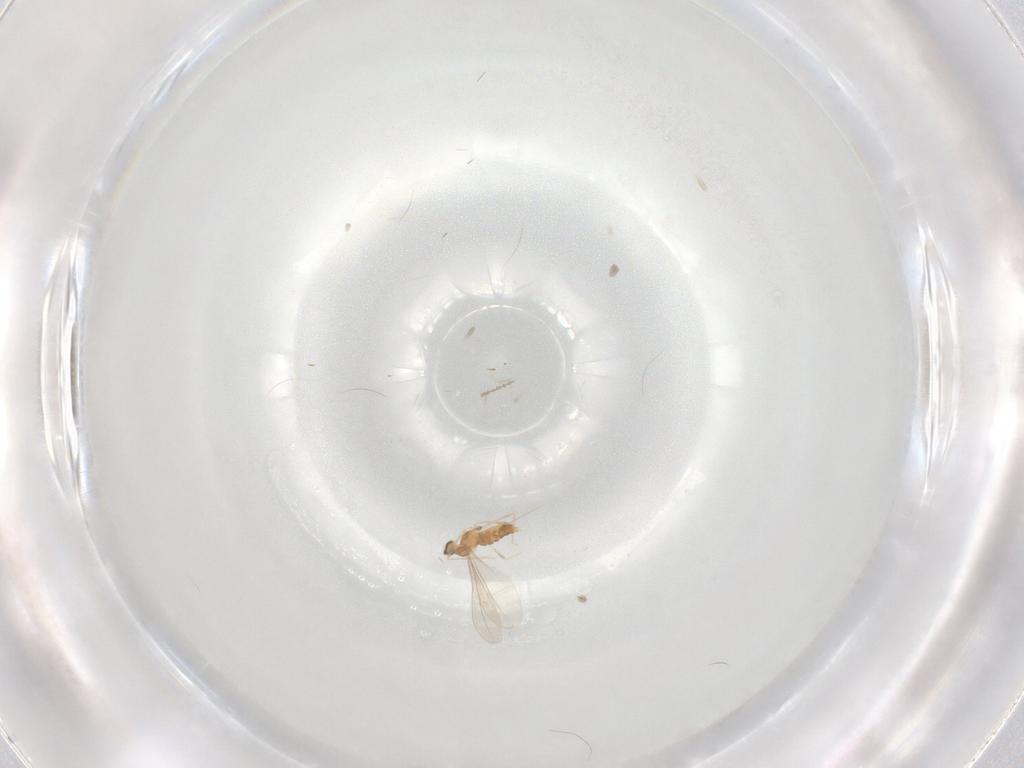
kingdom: Animalia
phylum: Arthropoda
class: Insecta
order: Diptera
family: Cecidomyiidae
